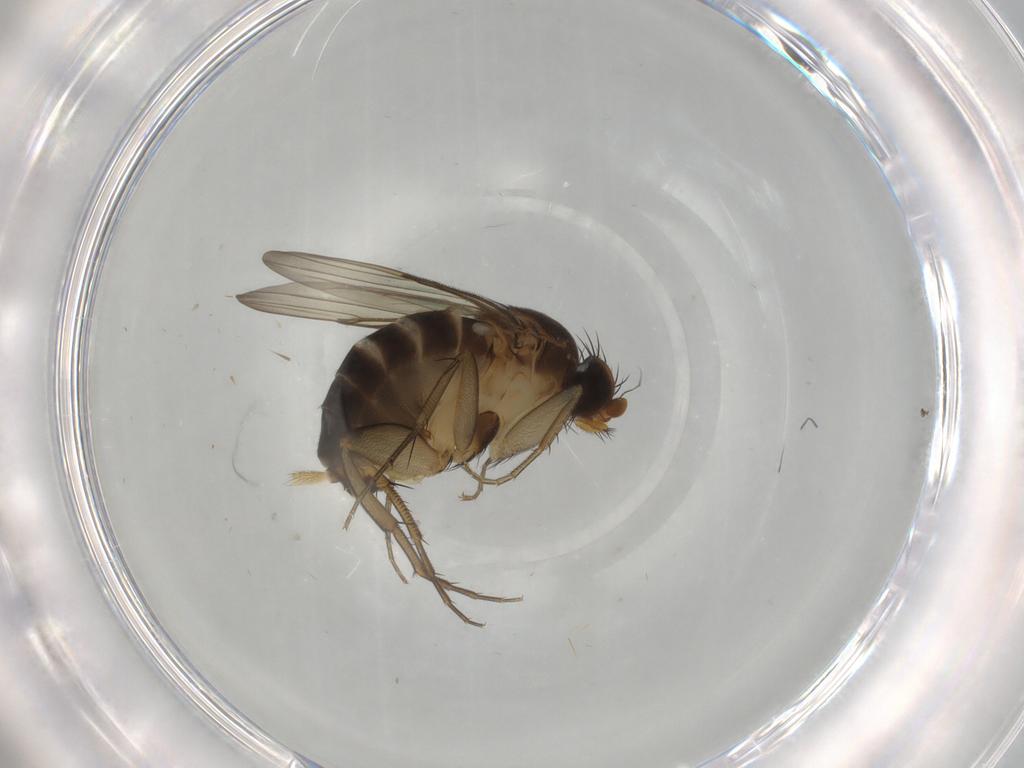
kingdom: Animalia
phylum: Arthropoda
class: Insecta
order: Diptera
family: Phoridae
